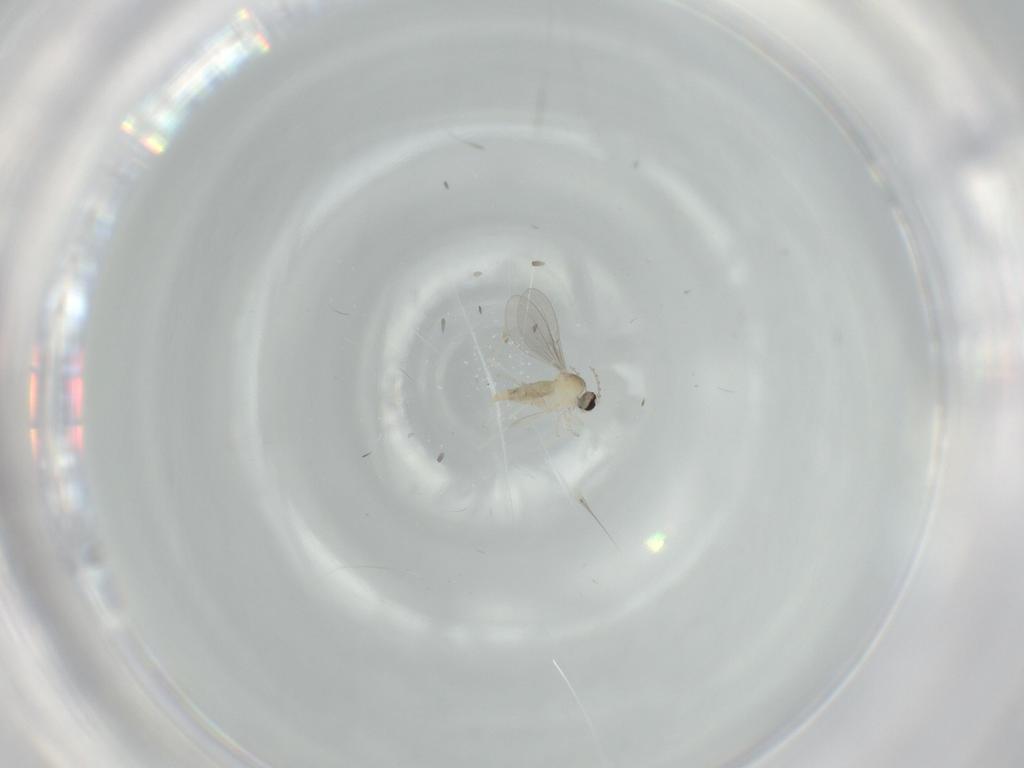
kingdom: Animalia
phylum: Arthropoda
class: Insecta
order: Diptera
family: Cecidomyiidae
